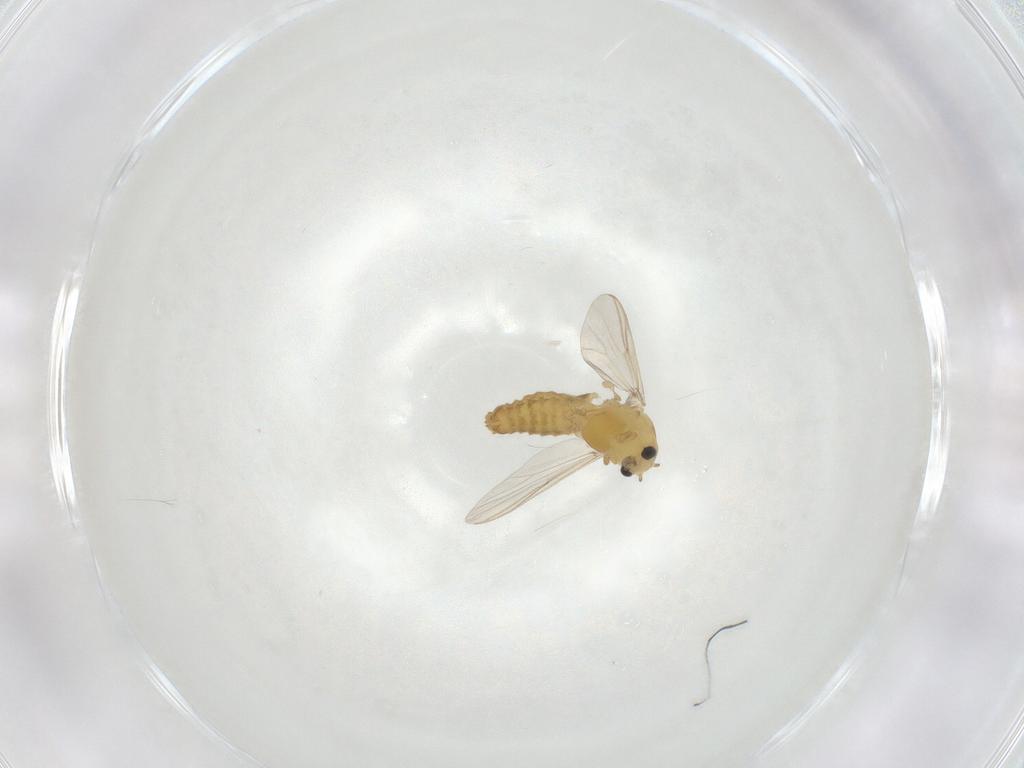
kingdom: Animalia
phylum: Arthropoda
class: Insecta
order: Diptera
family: Chironomidae
